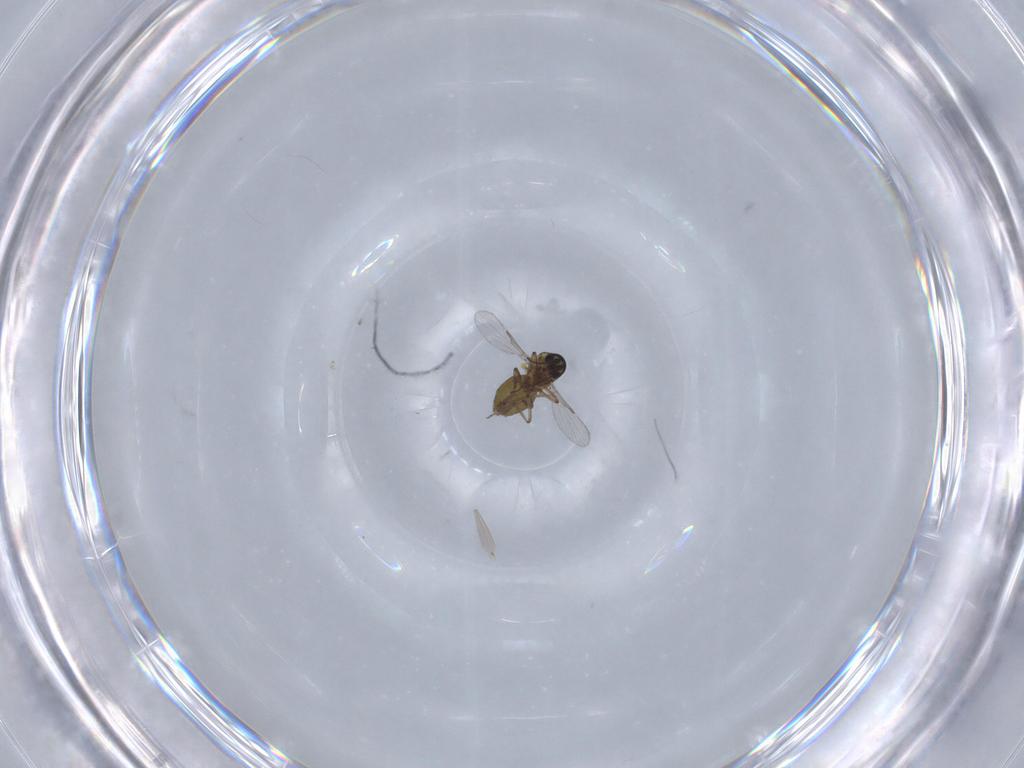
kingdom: Animalia
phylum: Arthropoda
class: Insecta
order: Diptera
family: Ceratopogonidae
